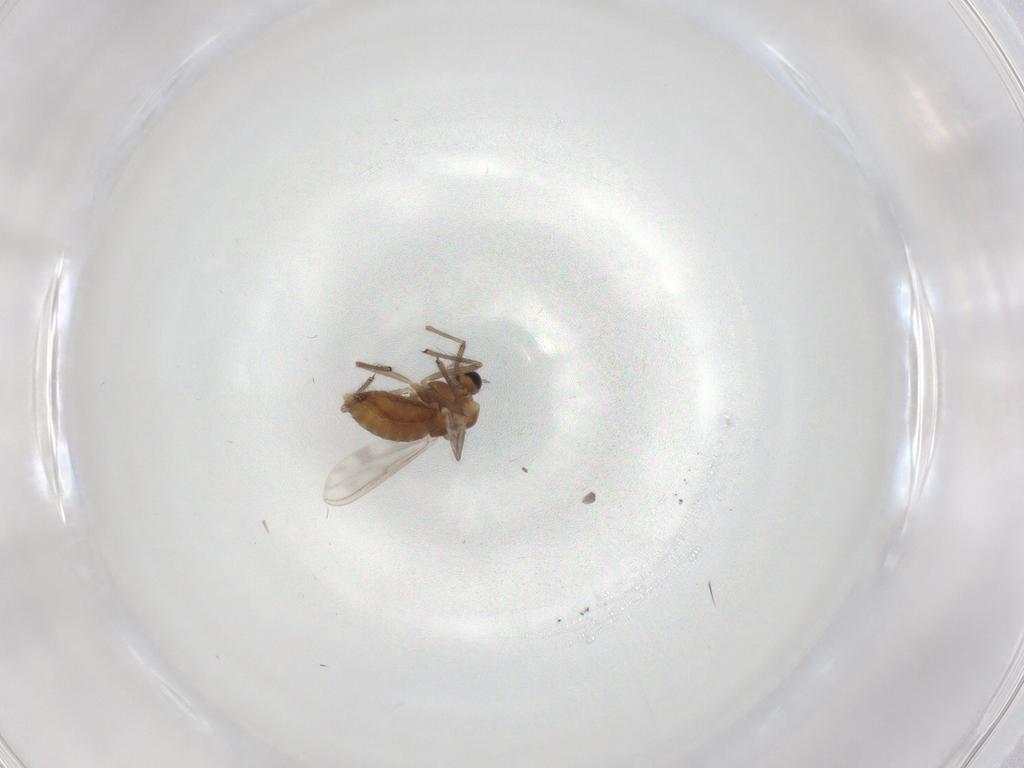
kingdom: Animalia
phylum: Arthropoda
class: Insecta
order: Diptera
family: Chironomidae
